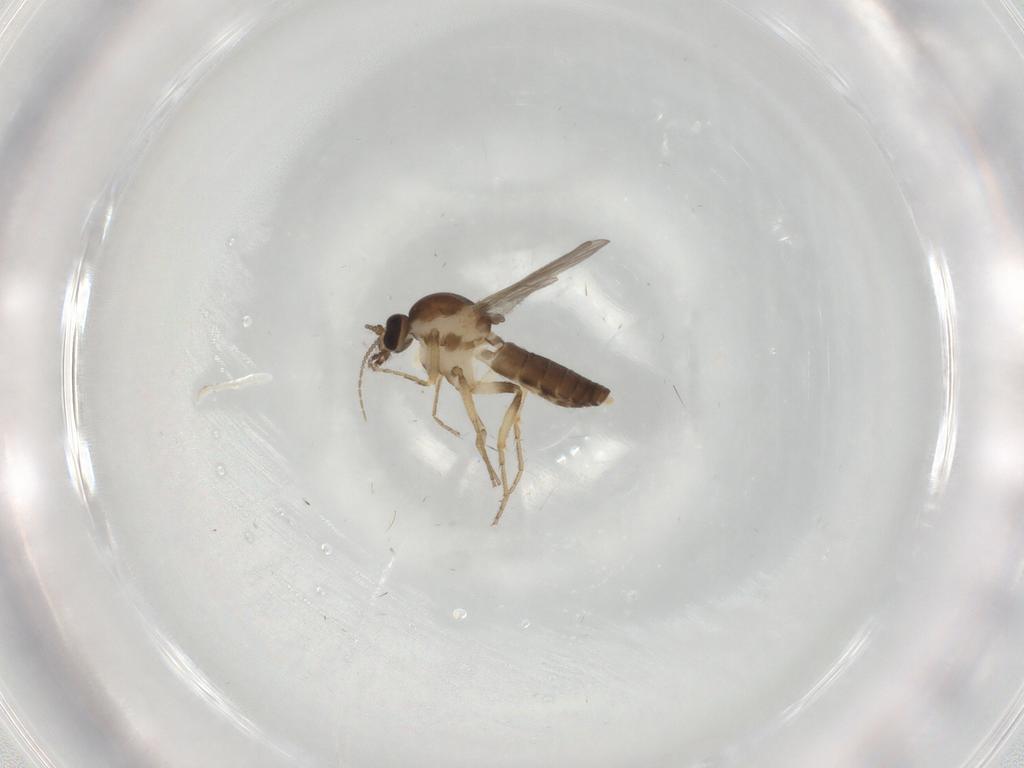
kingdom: Animalia
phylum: Arthropoda
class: Insecta
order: Diptera
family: Ceratopogonidae
